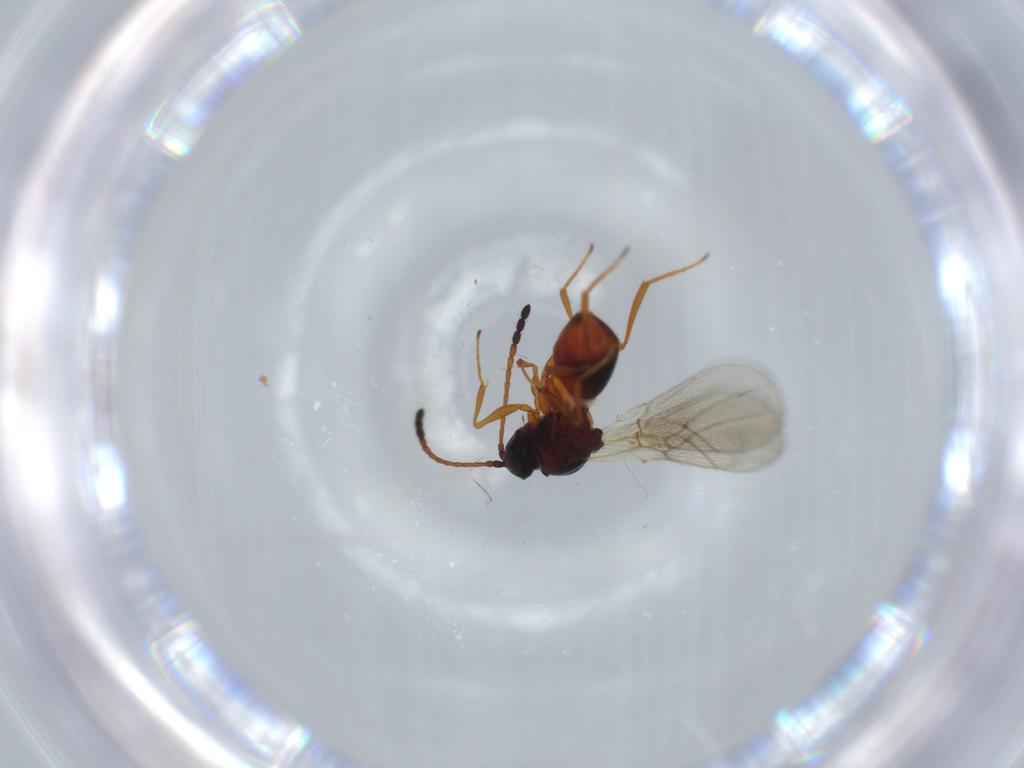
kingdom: Animalia
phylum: Arthropoda
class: Insecta
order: Hymenoptera
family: Figitidae
